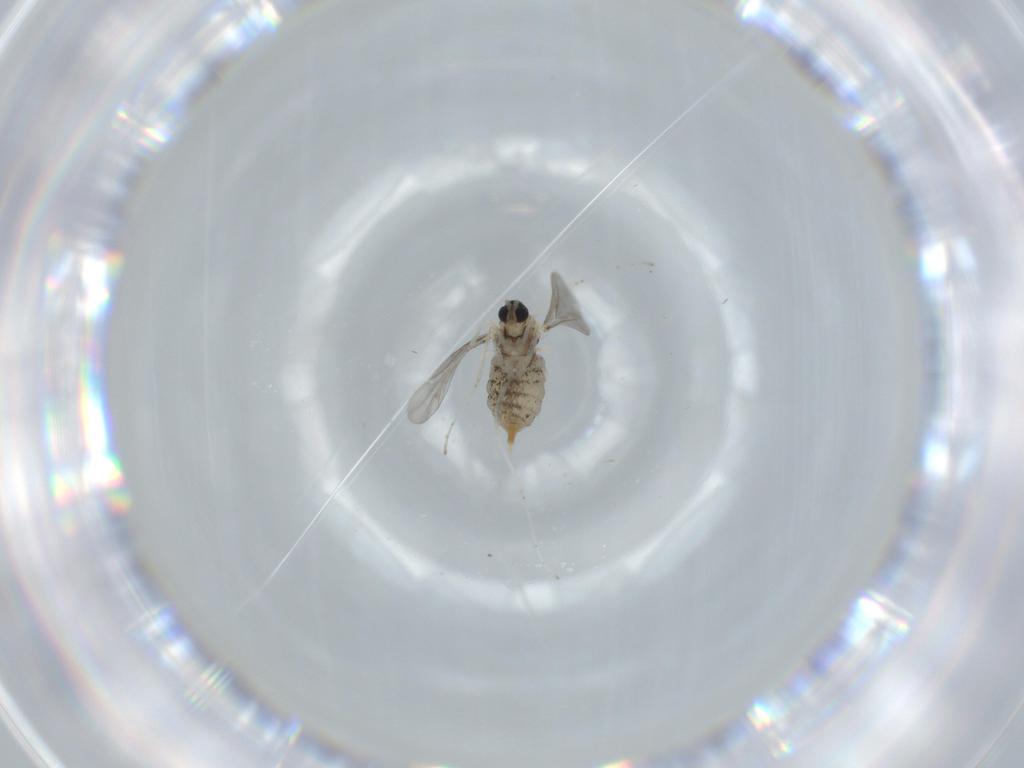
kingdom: Animalia
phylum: Arthropoda
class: Insecta
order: Diptera
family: Cecidomyiidae
